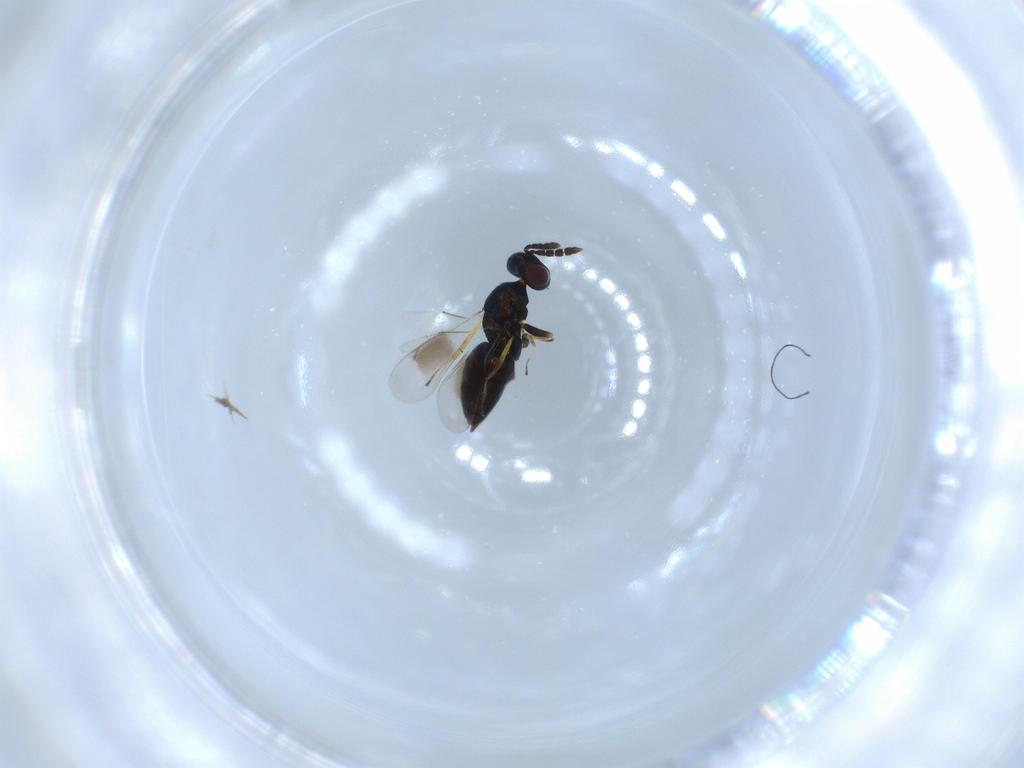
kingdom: Animalia
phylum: Arthropoda
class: Insecta
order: Hymenoptera
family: Eulophidae
